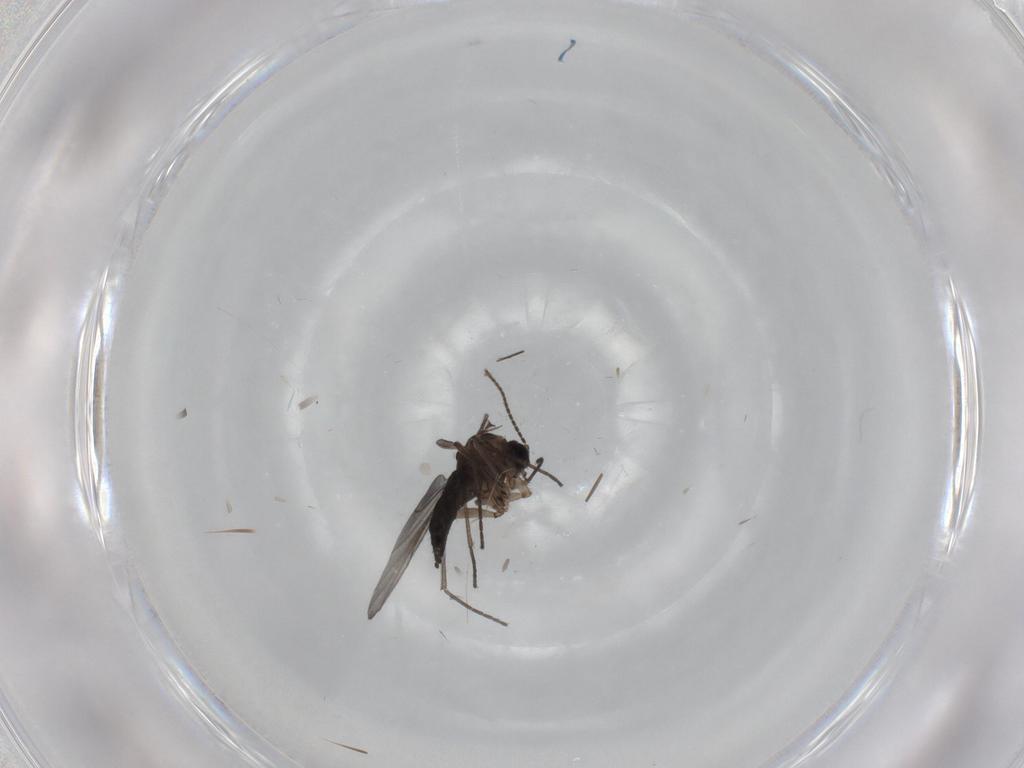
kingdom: Animalia
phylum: Arthropoda
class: Insecta
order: Diptera
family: Sciaridae
